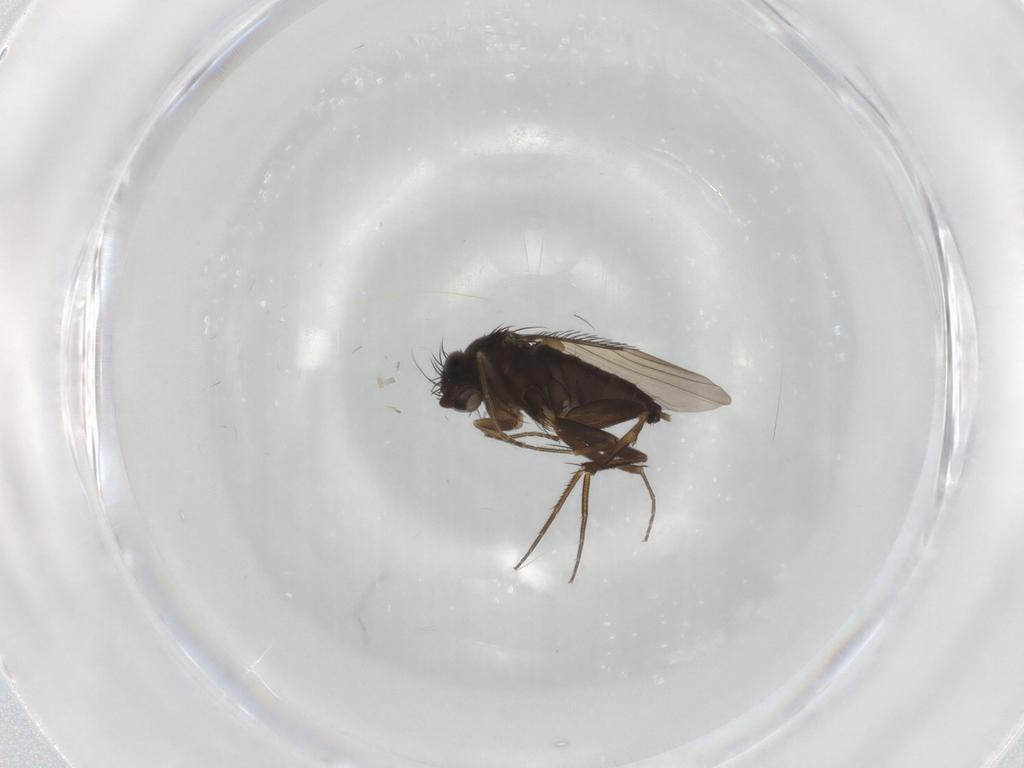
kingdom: Animalia
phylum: Arthropoda
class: Insecta
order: Diptera
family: Phoridae
